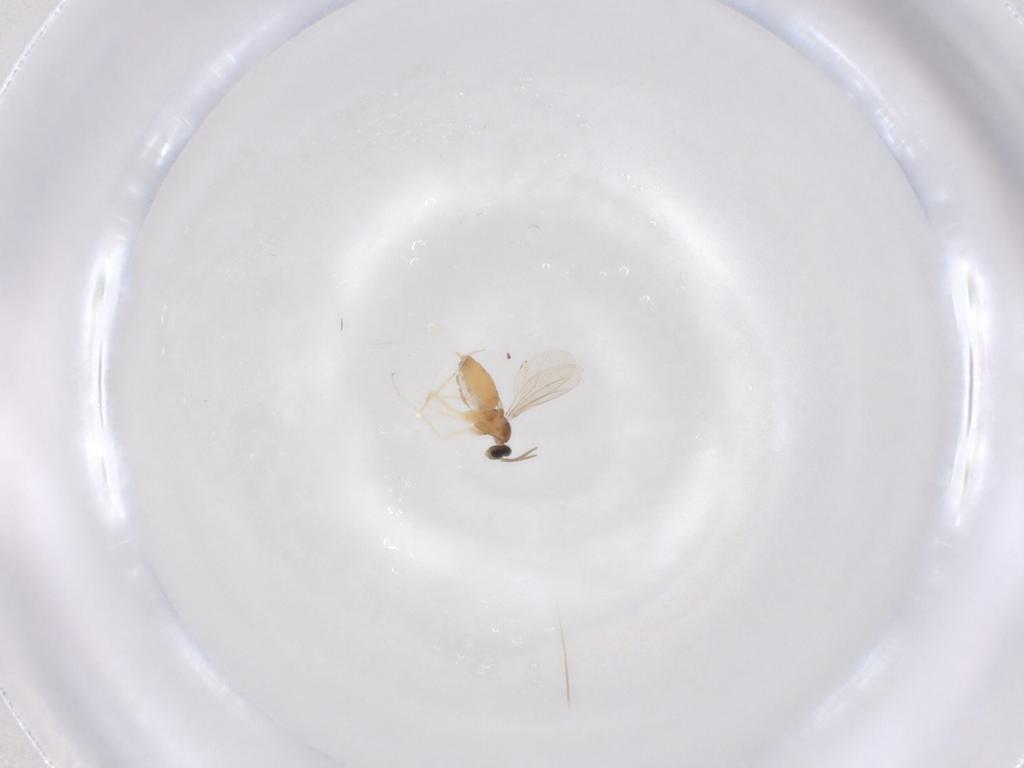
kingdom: Animalia
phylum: Arthropoda
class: Insecta
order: Diptera
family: Cecidomyiidae
